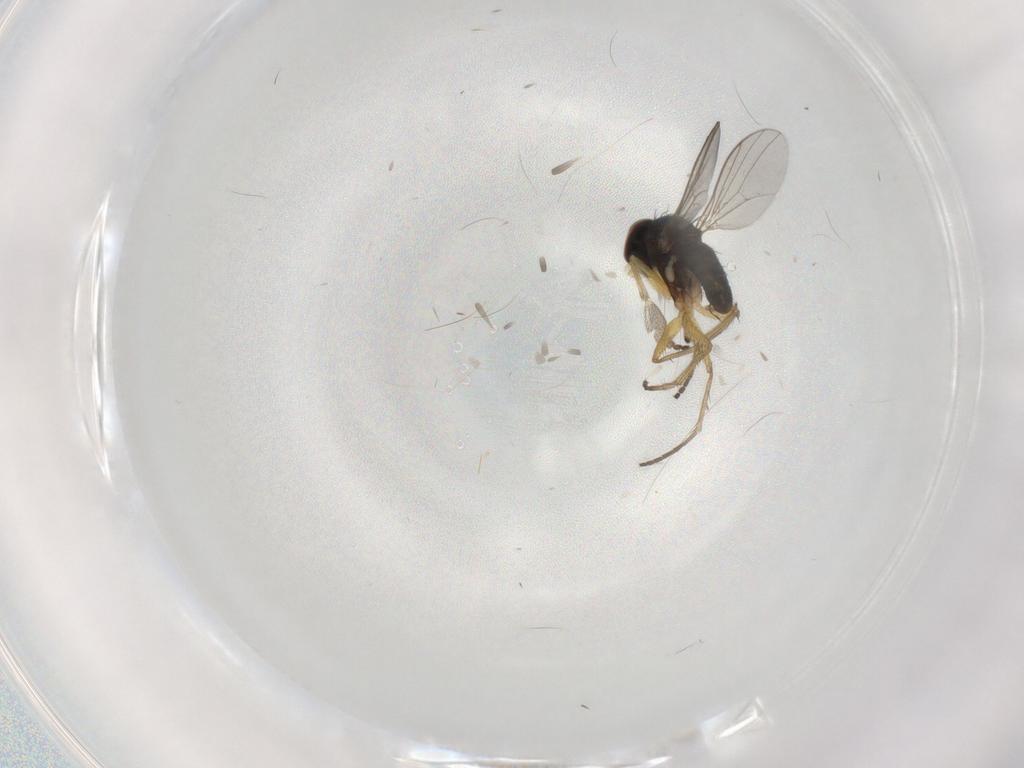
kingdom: Animalia
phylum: Arthropoda
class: Insecta
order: Diptera
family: Dolichopodidae
